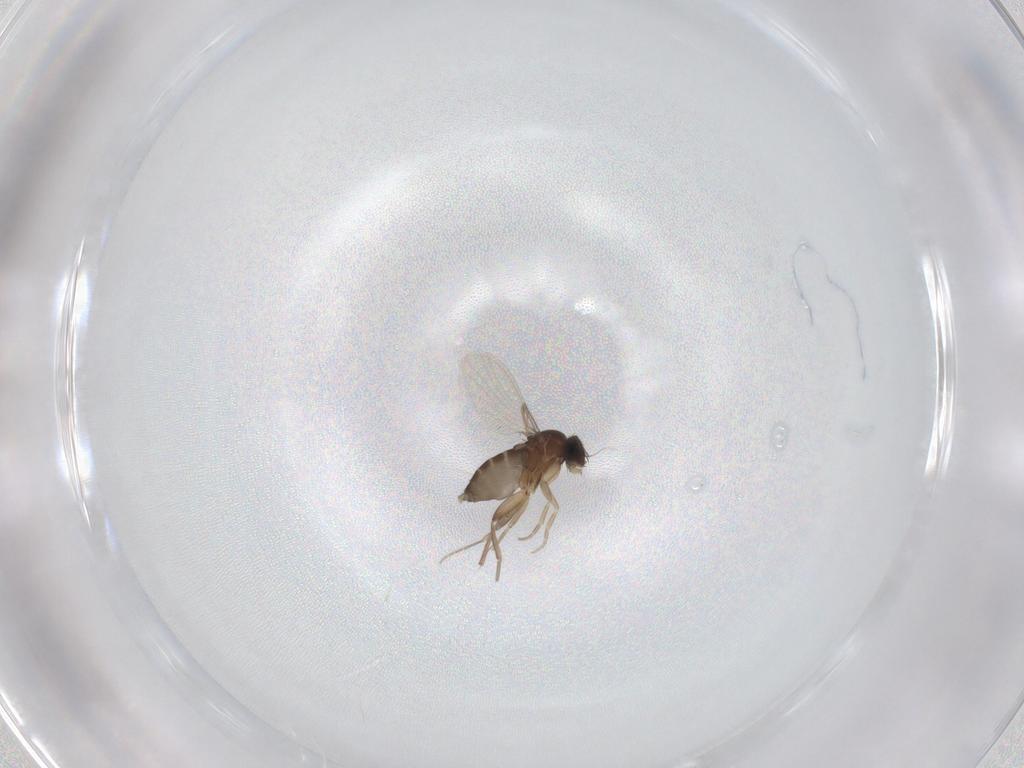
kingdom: Animalia
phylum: Arthropoda
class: Insecta
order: Diptera
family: Phoridae
